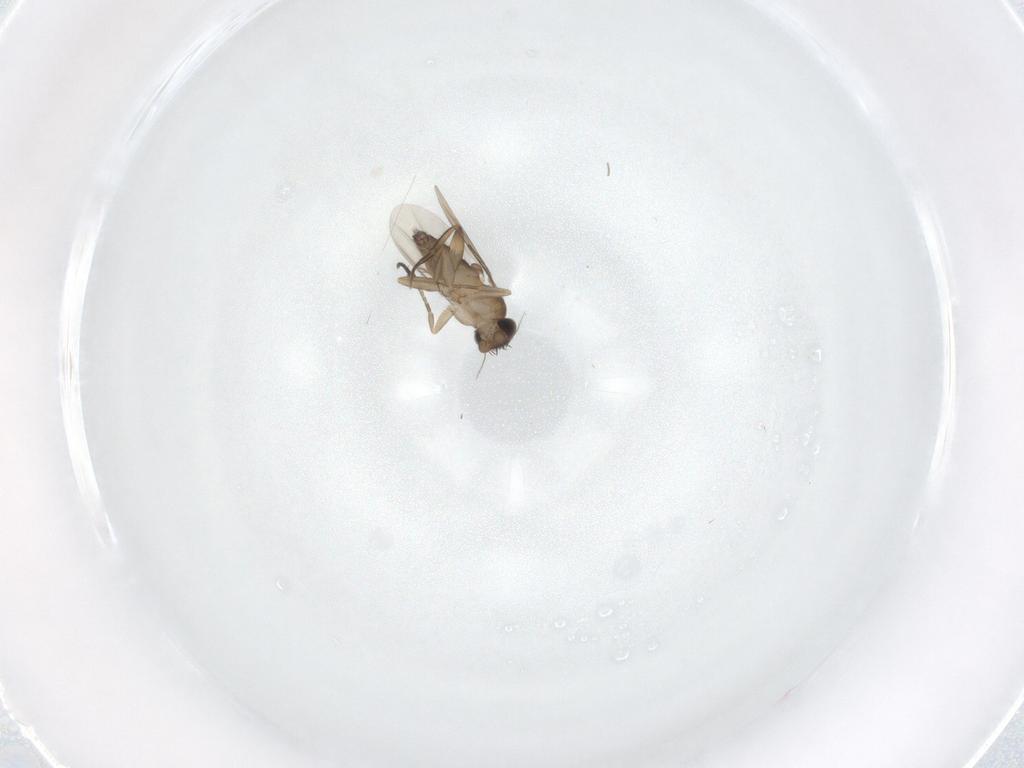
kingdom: Animalia
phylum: Arthropoda
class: Insecta
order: Diptera
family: Phoridae
